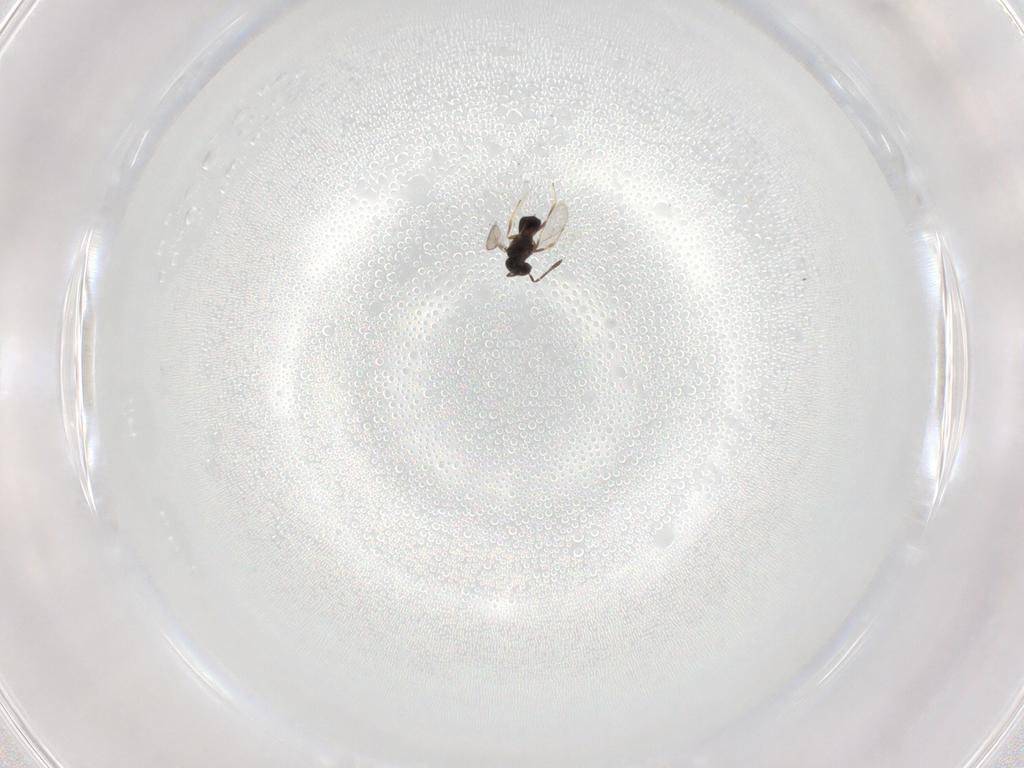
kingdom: Animalia
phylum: Arthropoda
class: Insecta
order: Hymenoptera
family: Scelionidae
